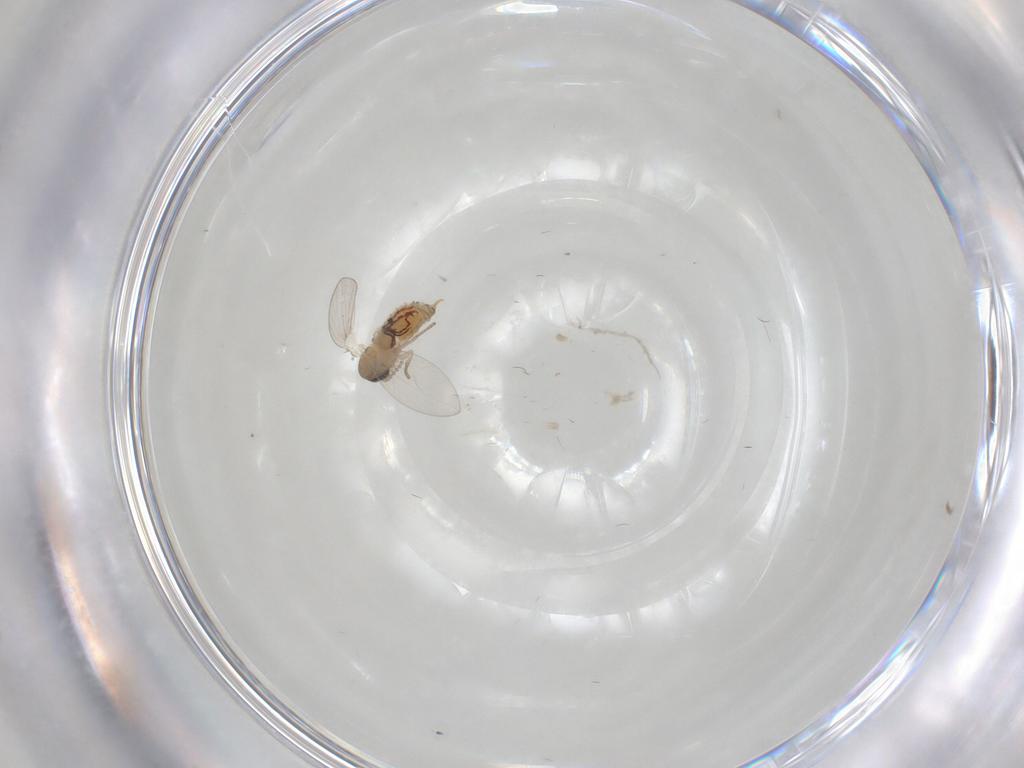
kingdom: Animalia
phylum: Arthropoda
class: Insecta
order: Diptera
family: Psychodidae
